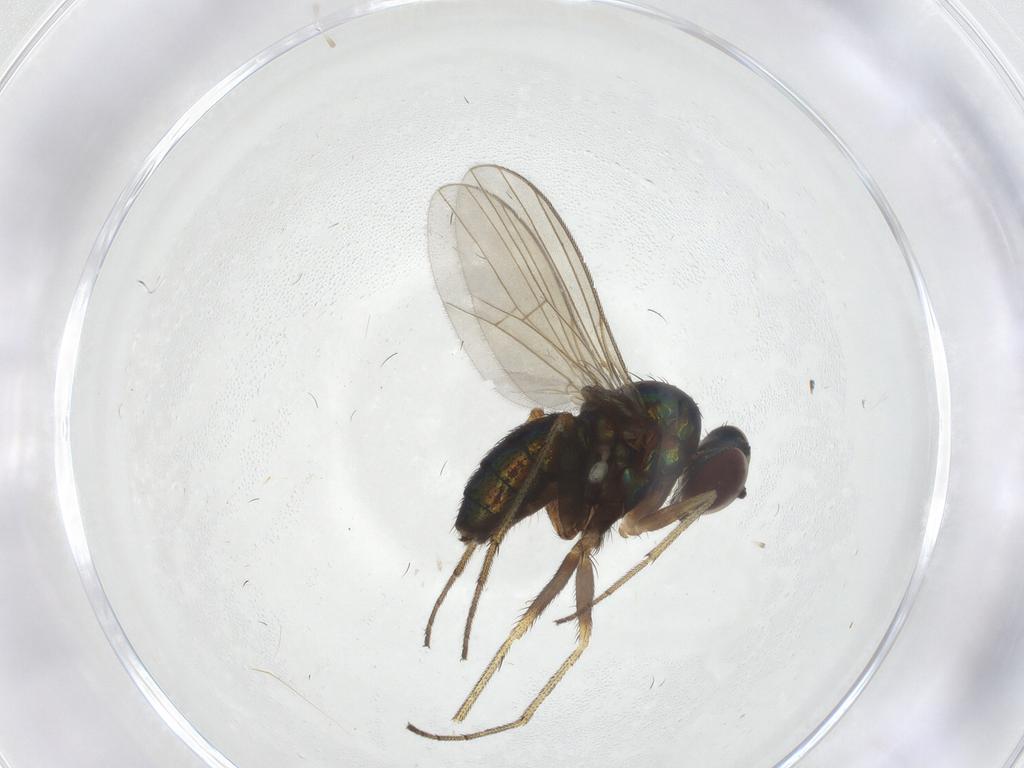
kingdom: Animalia
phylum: Arthropoda
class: Insecta
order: Diptera
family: Dolichopodidae
